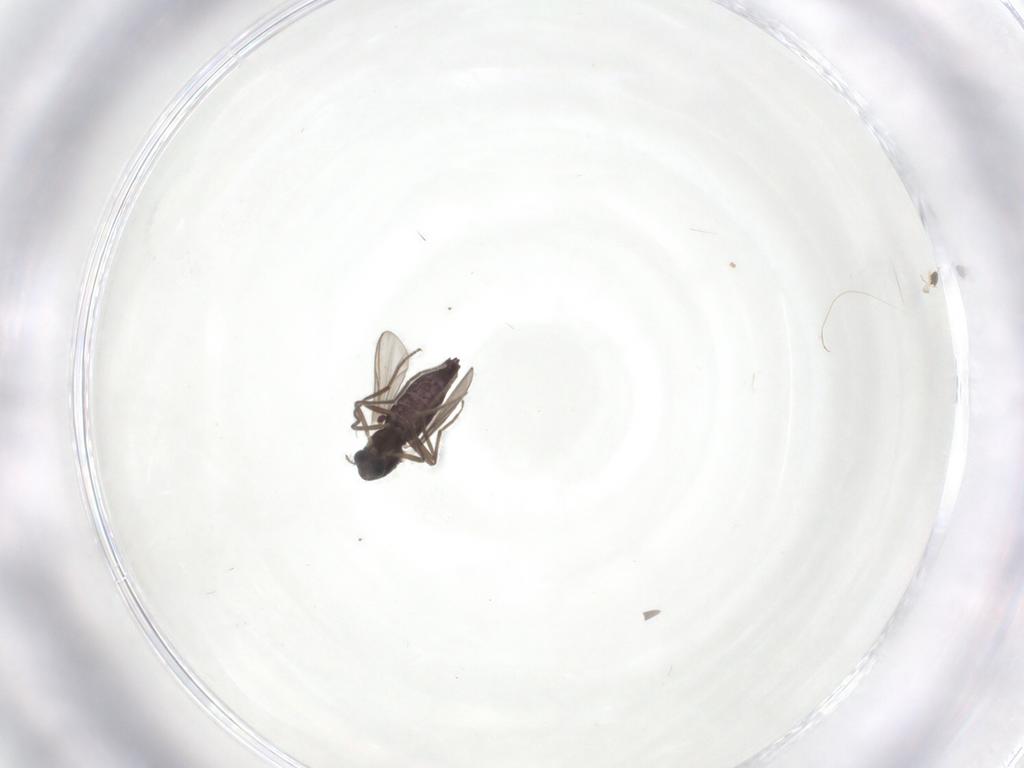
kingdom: Animalia
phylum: Arthropoda
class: Insecta
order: Diptera
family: Chironomidae
